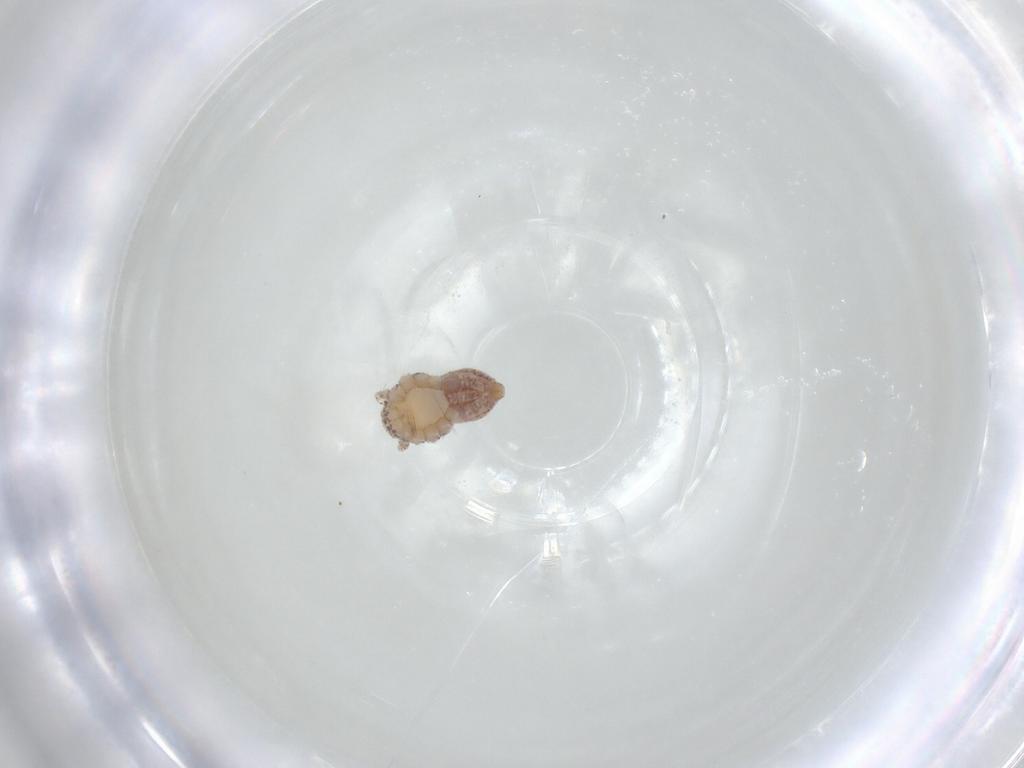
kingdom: Animalia
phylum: Arthropoda
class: Arachnida
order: Araneae
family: Philodromidae
